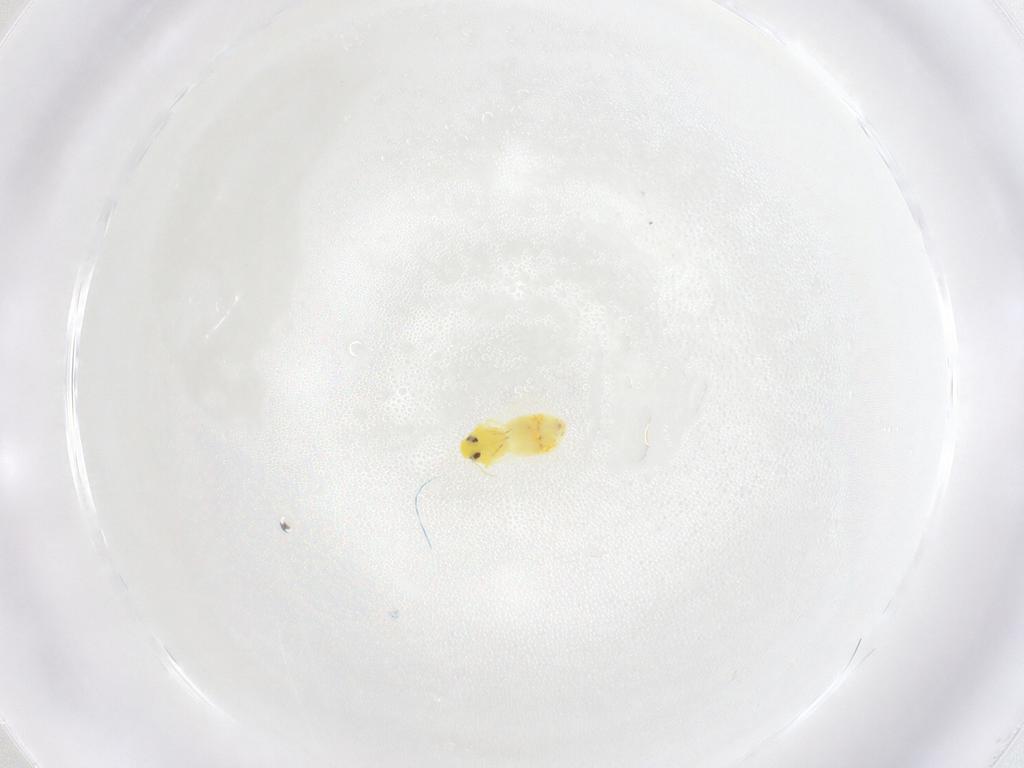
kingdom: Animalia
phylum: Arthropoda
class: Insecta
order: Hemiptera
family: Aleyrodidae
